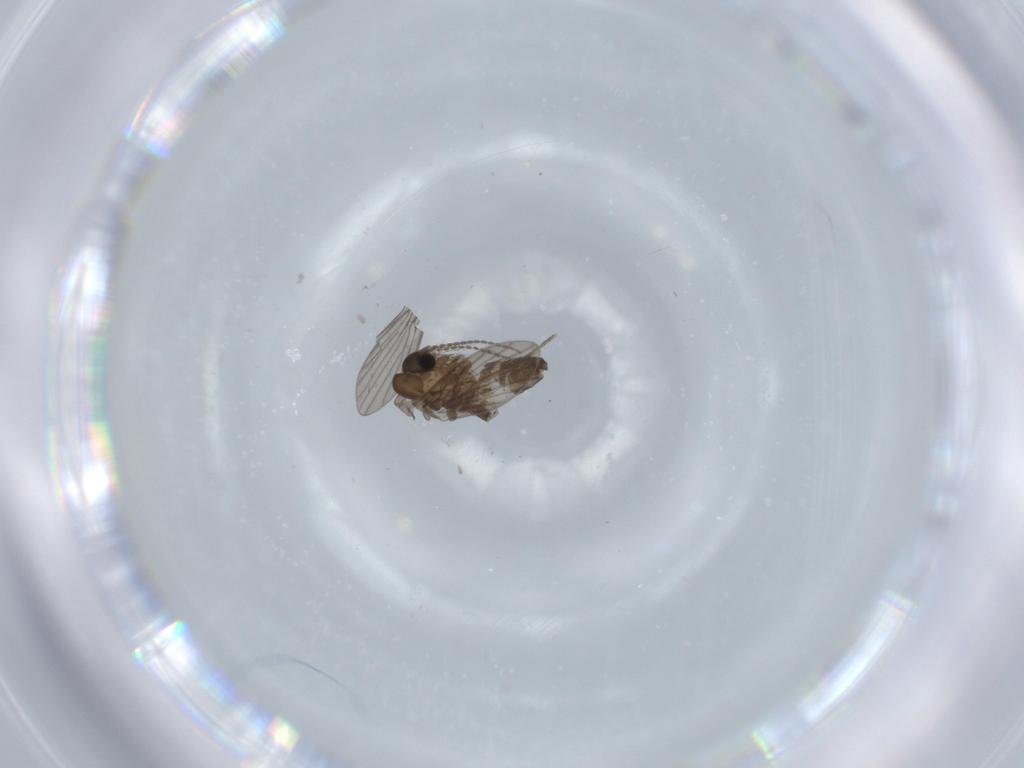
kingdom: Animalia
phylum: Arthropoda
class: Insecta
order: Diptera
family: Psychodidae
